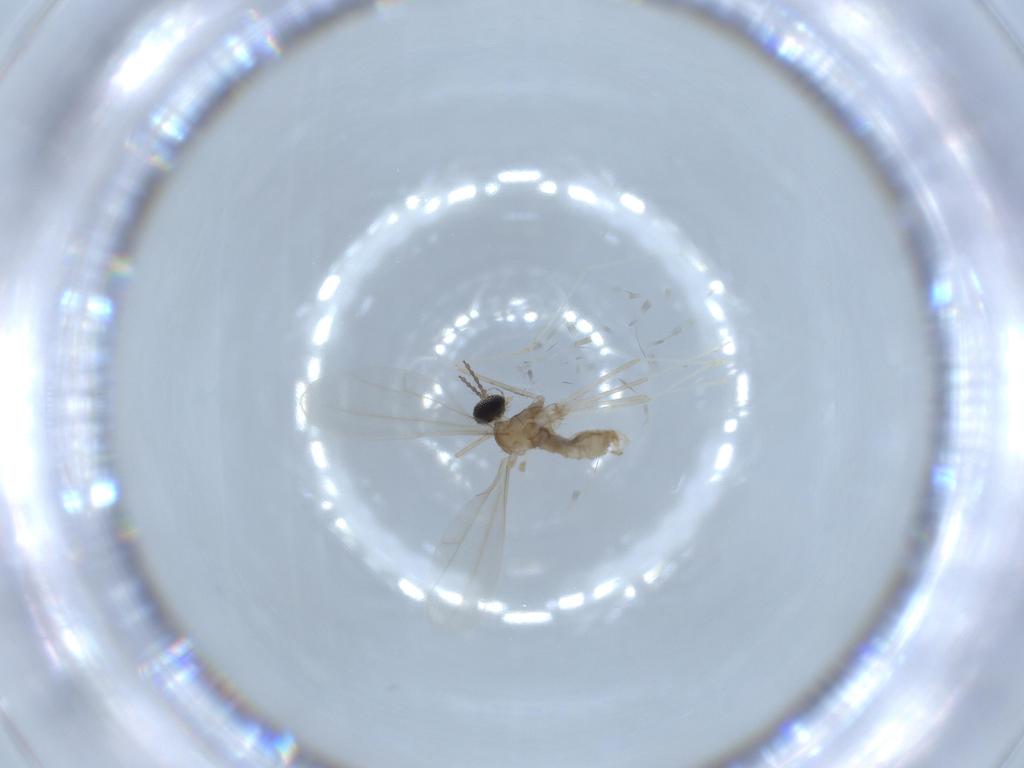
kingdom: Animalia
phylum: Arthropoda
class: Insecta
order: Diptera
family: Cecidomyiidae
